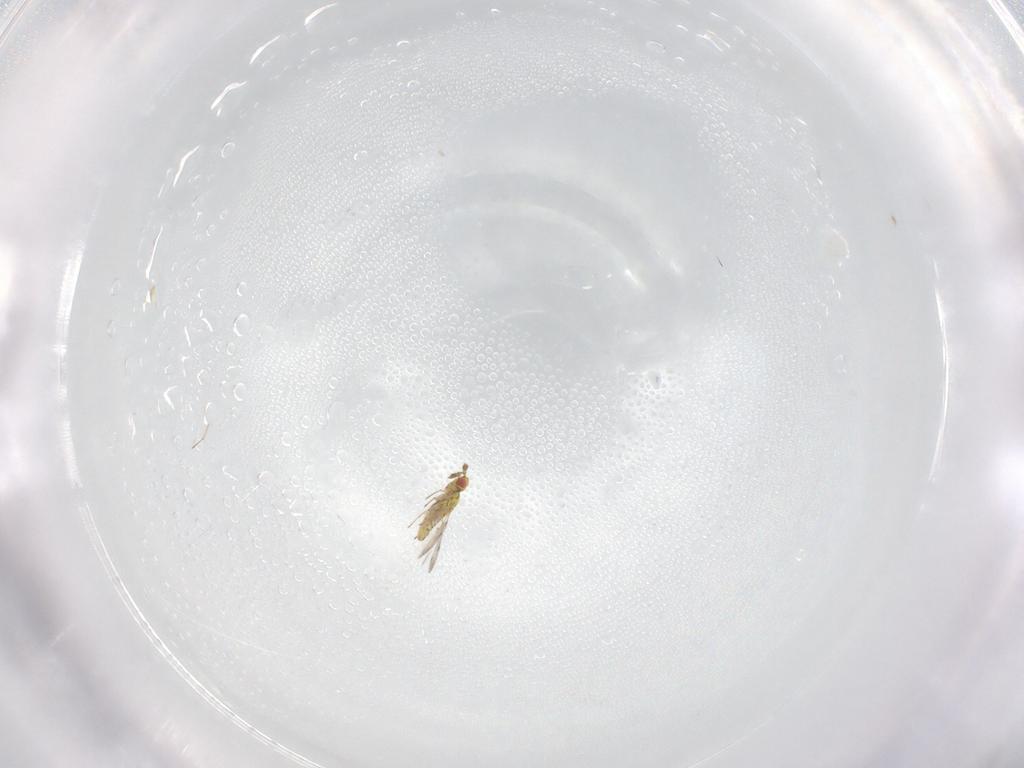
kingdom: Animalia
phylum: Arthropoda
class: Insecta
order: Hymenoptera
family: Eulophidae
